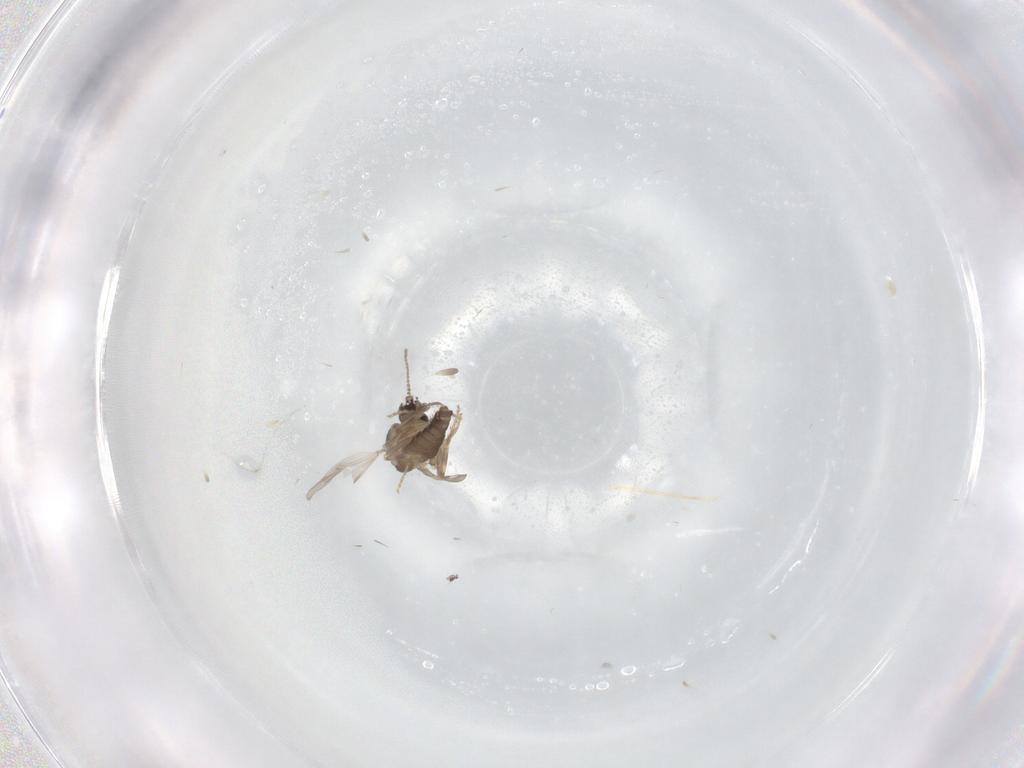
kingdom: Animalia
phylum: Arthropoda
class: Insecta
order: Diptera
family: Ceratopogonidae
